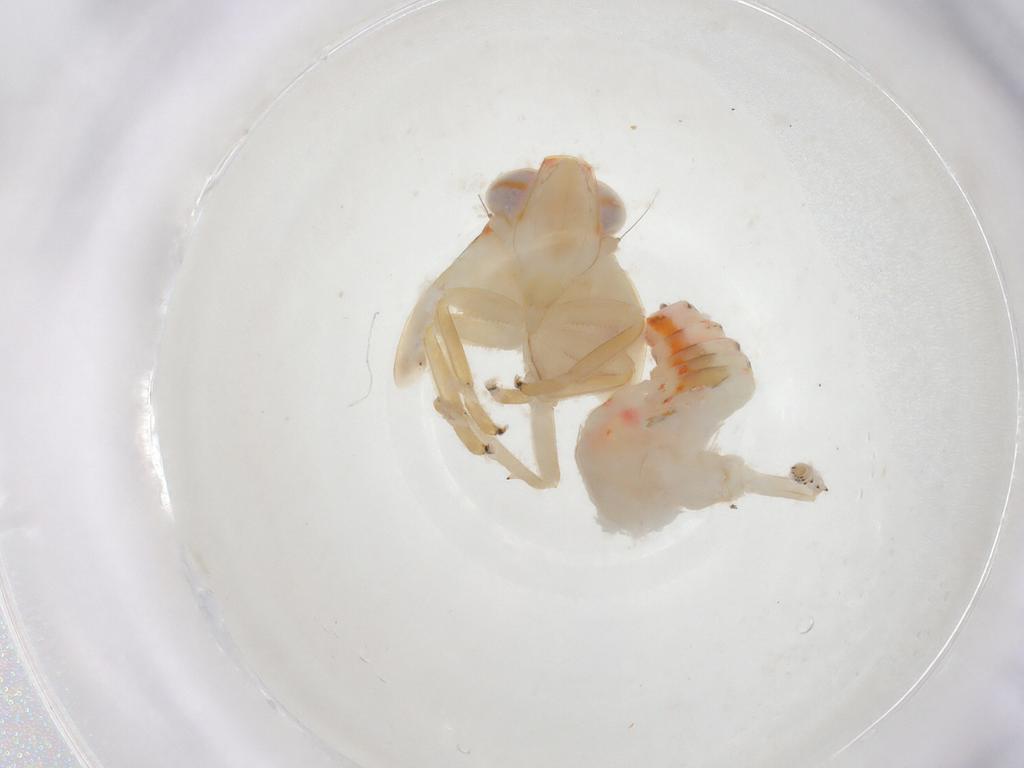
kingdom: Animalia
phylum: Arthropoda
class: Insecta
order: Hemiptera
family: Nogodinidae
